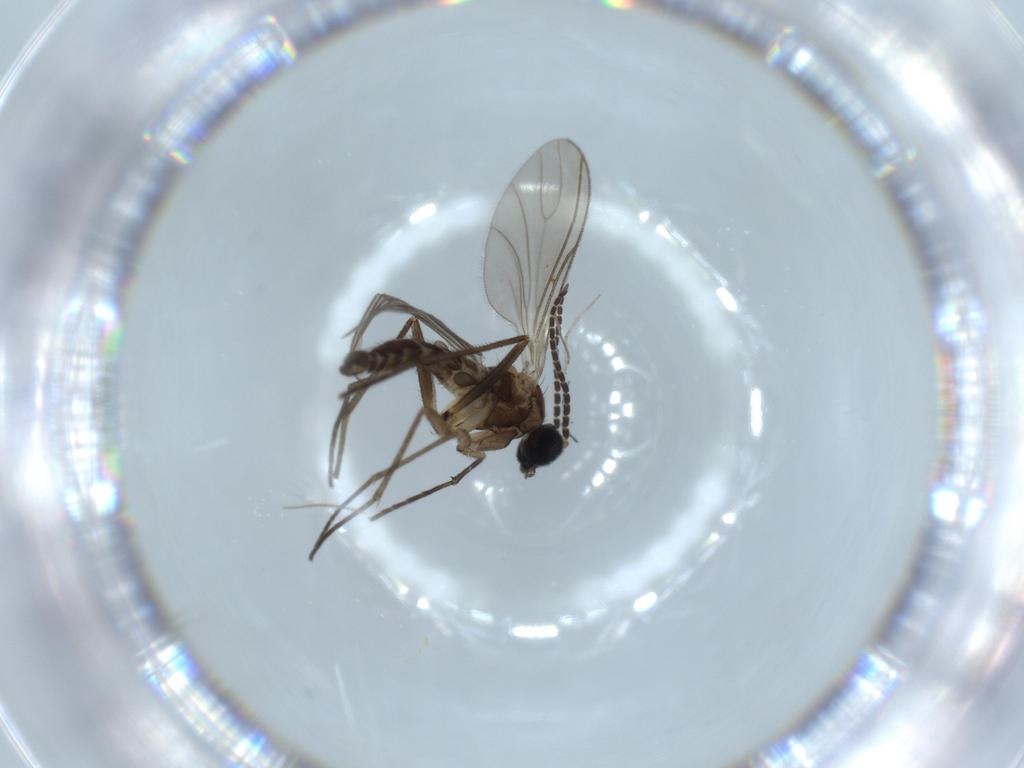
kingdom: Animalia
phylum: Arthropoda
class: Insecta
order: Diptera
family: Sciaridae
